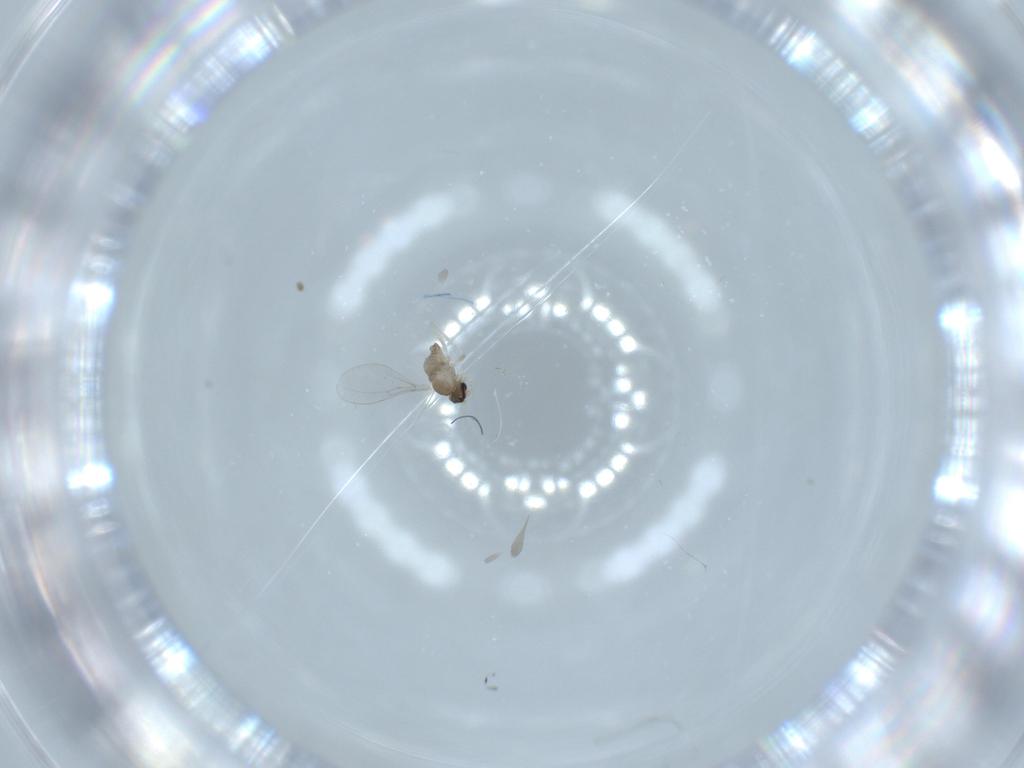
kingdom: Animalia
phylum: Arthropoda
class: Insecta
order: Diptera
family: Cecidomyiidae
